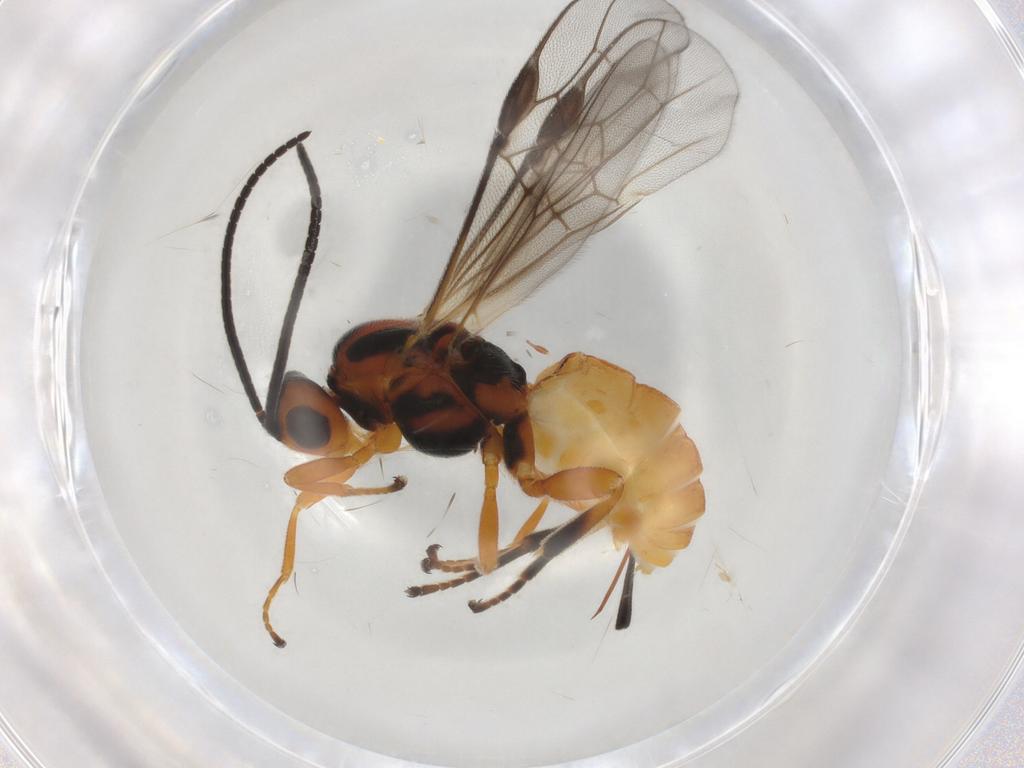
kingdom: Animalia
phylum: Arthropoda
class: Insecta
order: Hymenoptera
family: Braconidae
